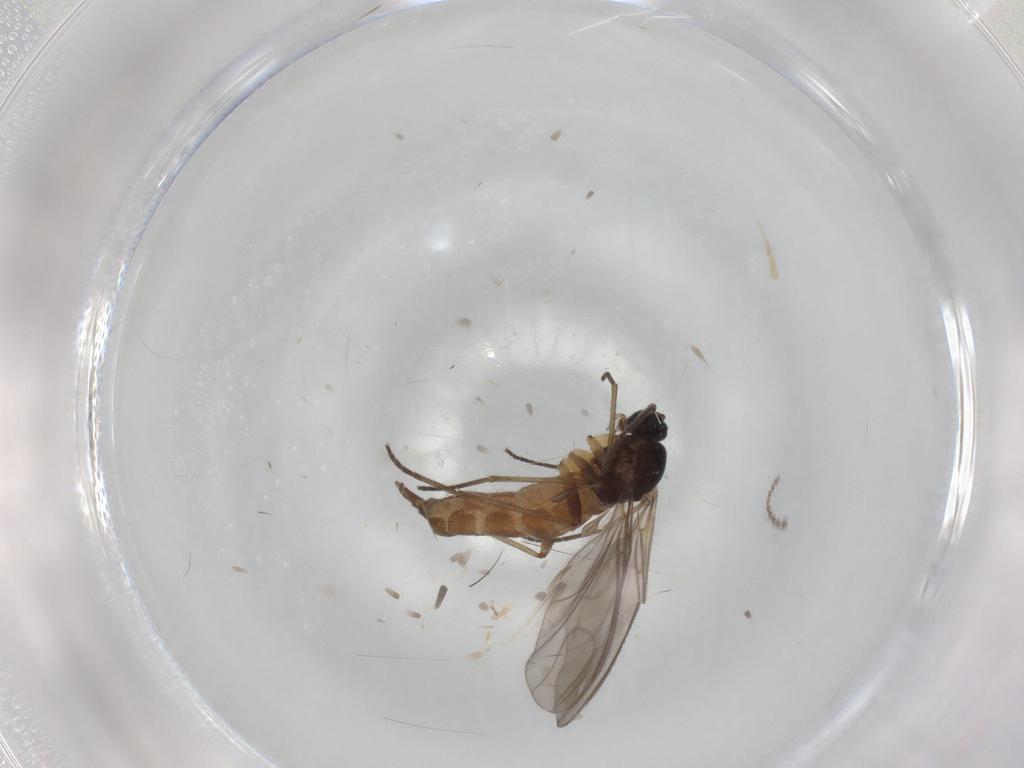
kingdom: Animalia
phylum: Arthropoda
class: Insecta
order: Diptera
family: Sciaridae
